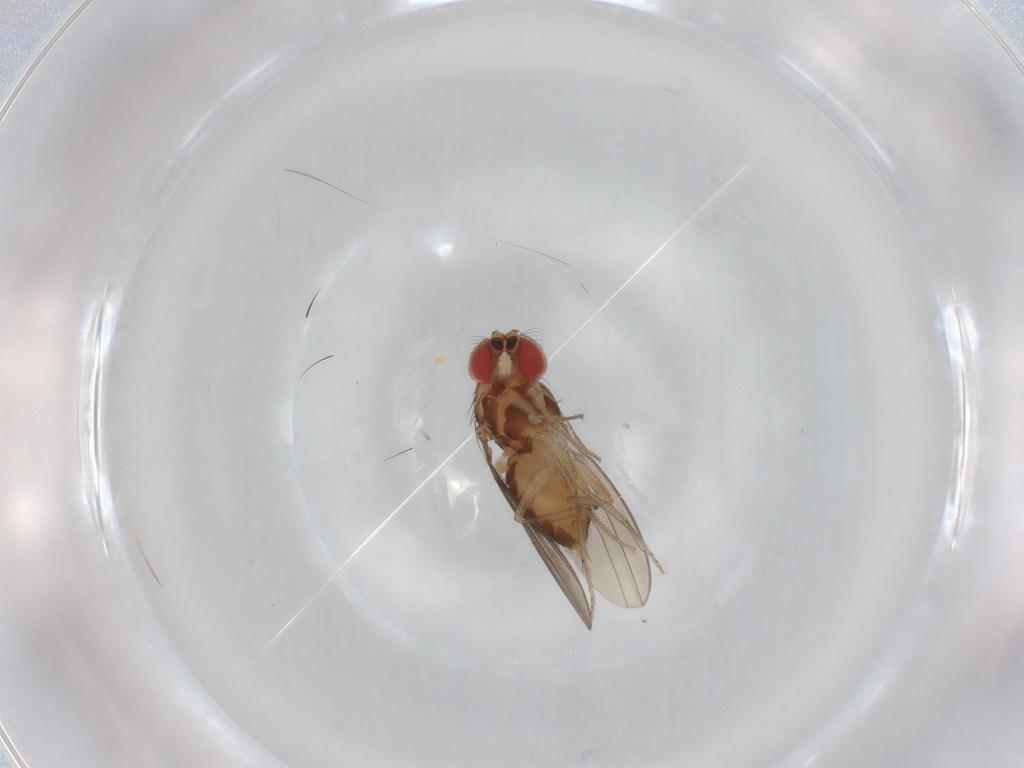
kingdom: Animalia
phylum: Arthropoda
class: Insecta
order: Diptera
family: Drosophilidae
